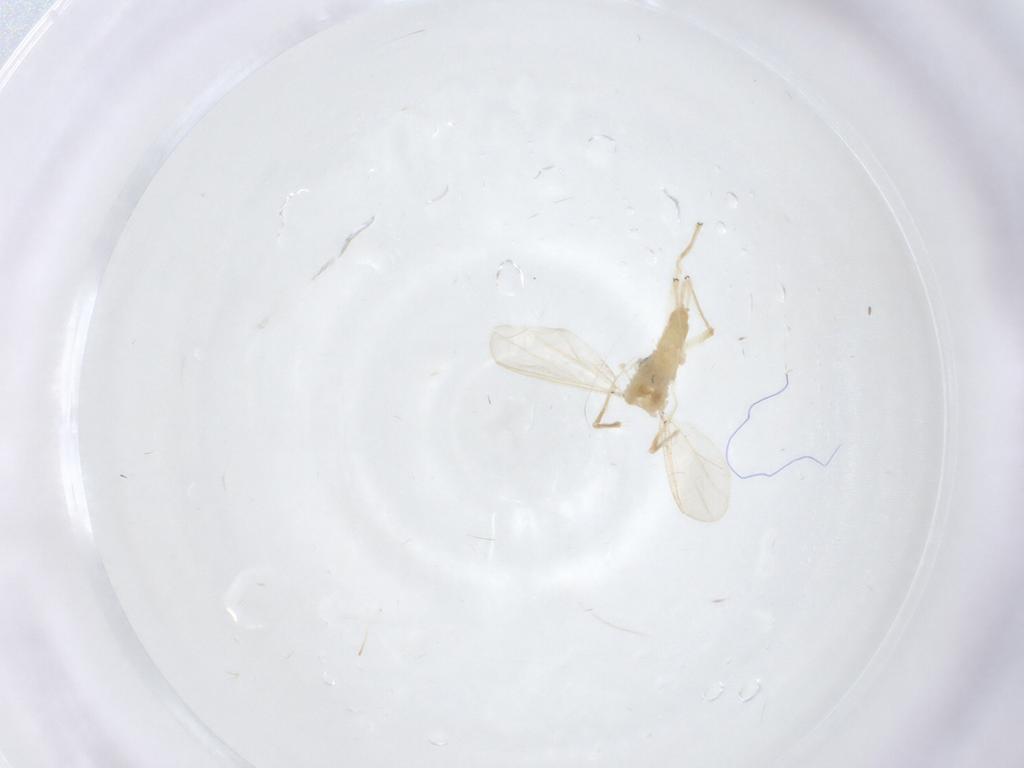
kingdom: Animalia
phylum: Arthropoda
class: Insecta
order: Diptera
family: Chironomidae
